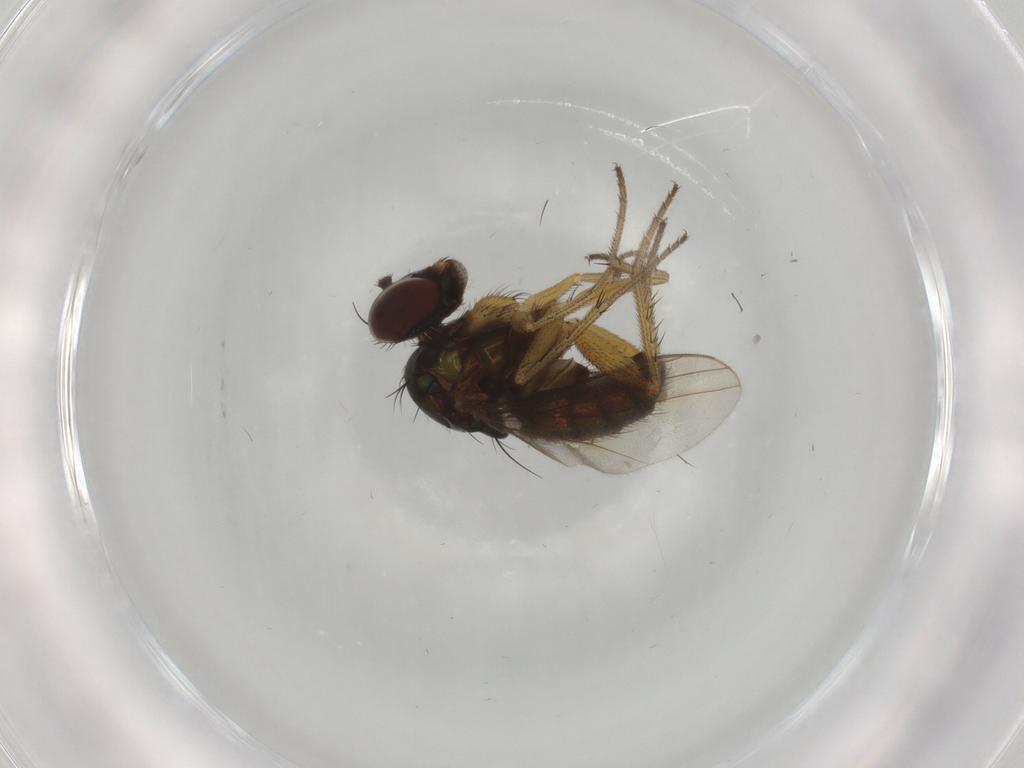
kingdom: Animalia
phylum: Arthropoda
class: Insecta
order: Diptera
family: Dolichopodidae
